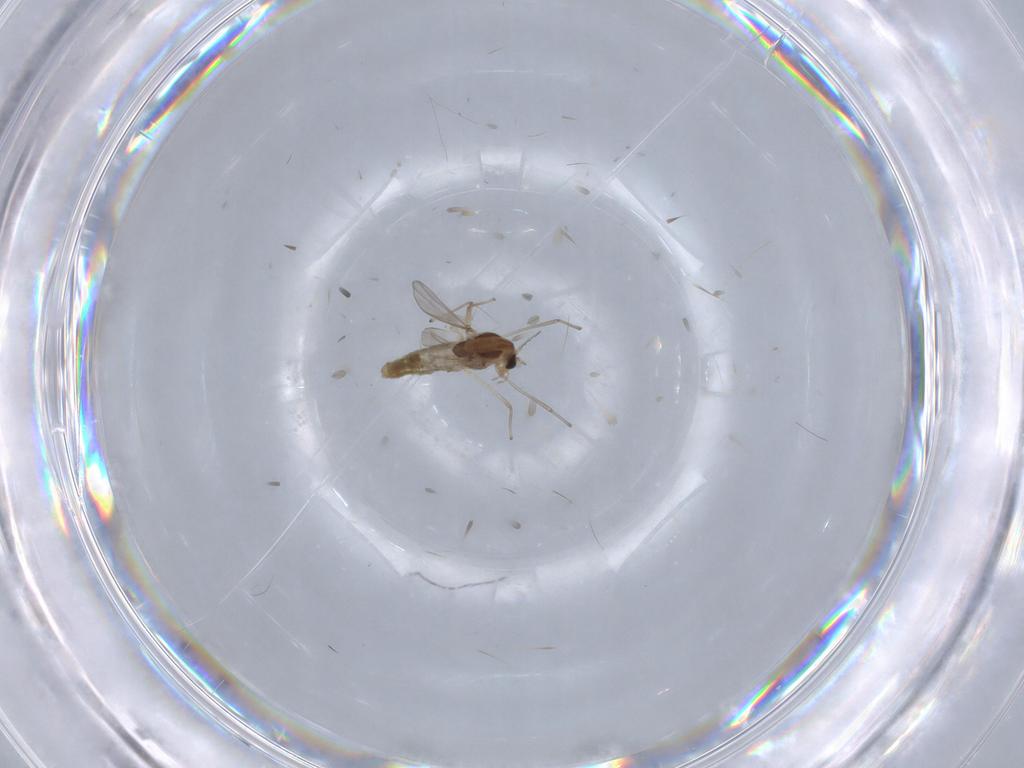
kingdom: Animalia
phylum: Arthropoda
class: Insecta
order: Diptera
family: Chironomidae
